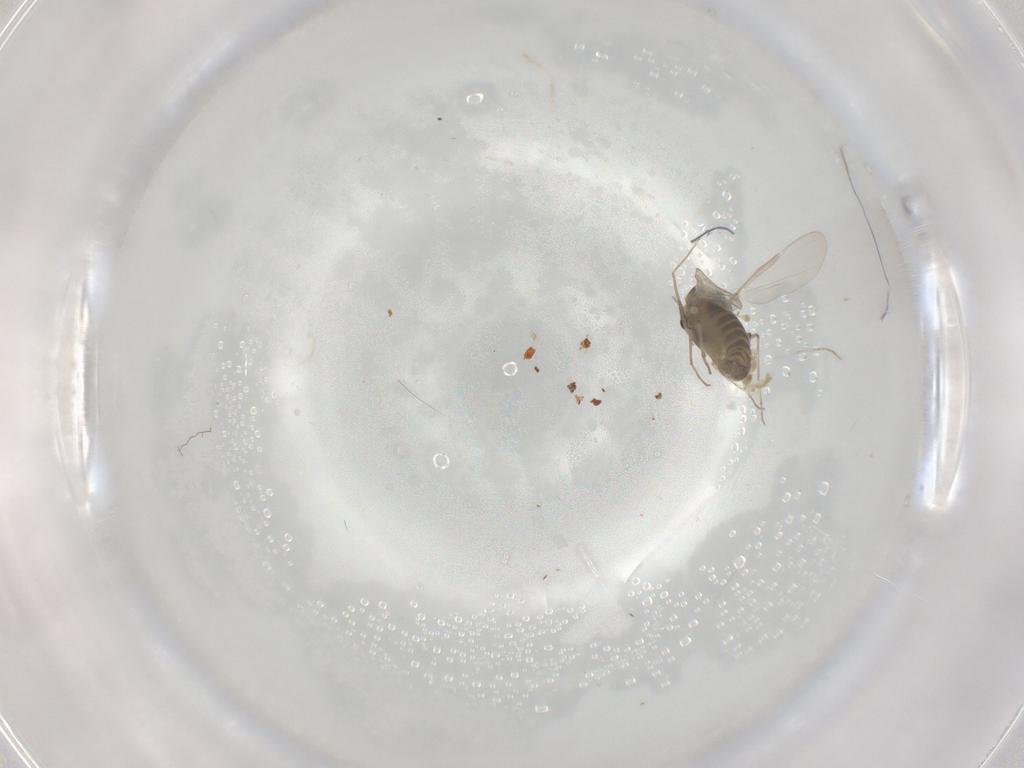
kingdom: Animalia
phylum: Arthropoda
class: Insecta
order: Diptera
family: Chironomidae
